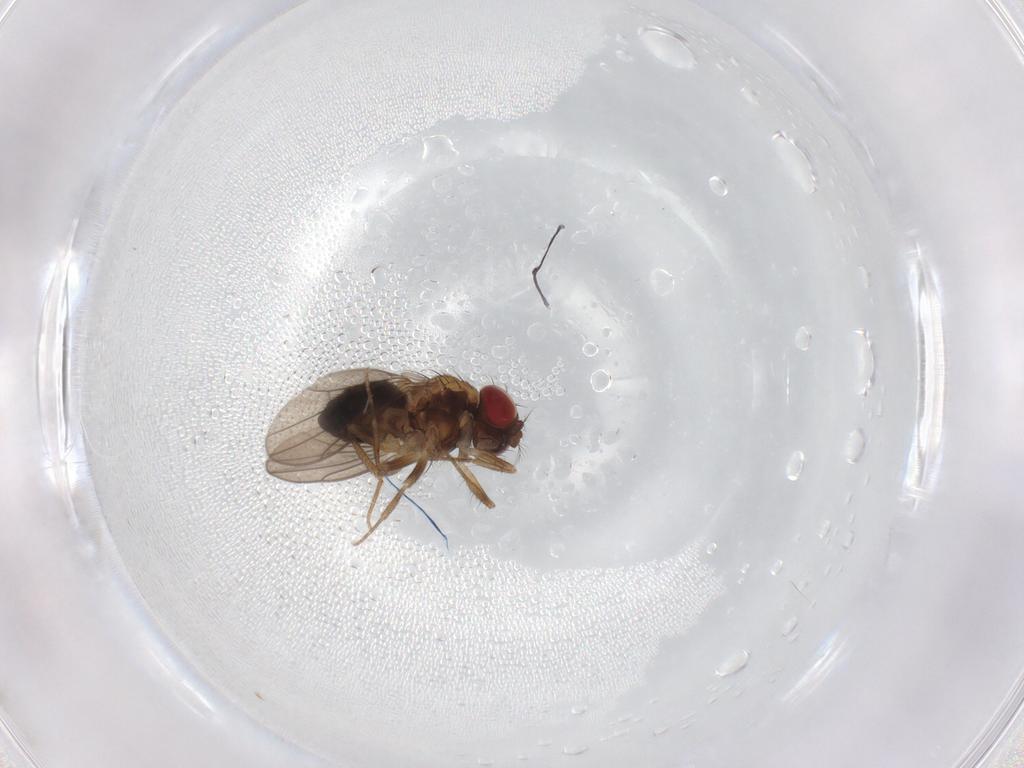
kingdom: Animalia
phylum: Arthropoda
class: Insecta
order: Diptera
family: Drosophilidae
